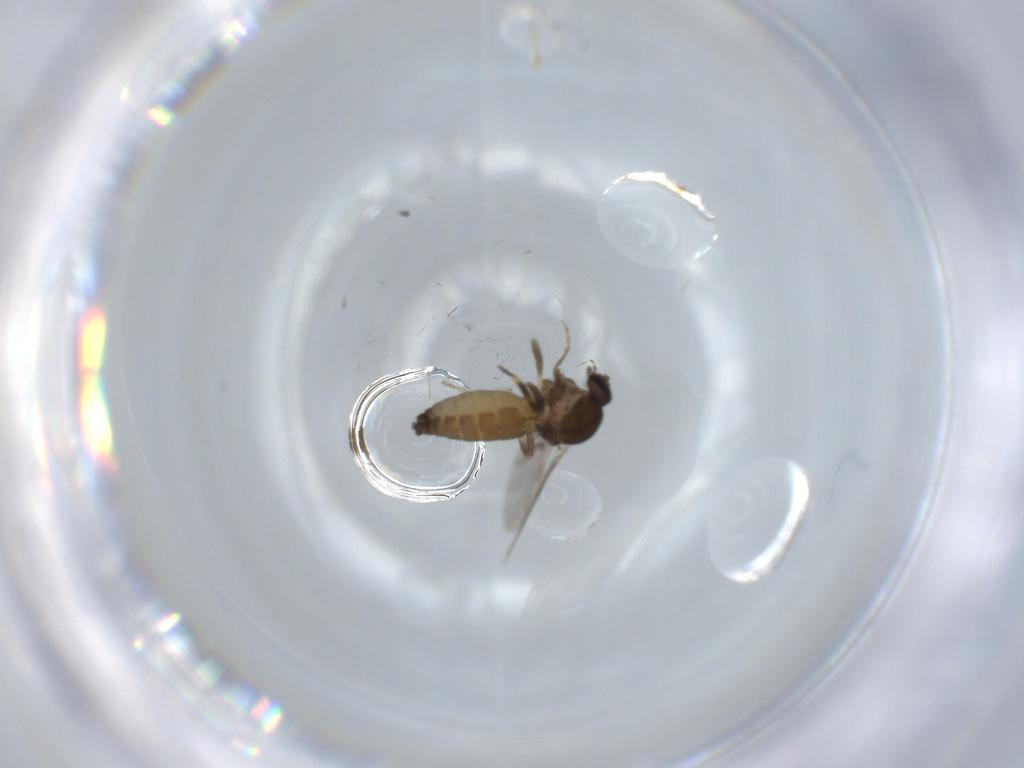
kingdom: Animalia
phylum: Arthropoda
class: Insecta
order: Diptera
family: Ceratopogonidae
